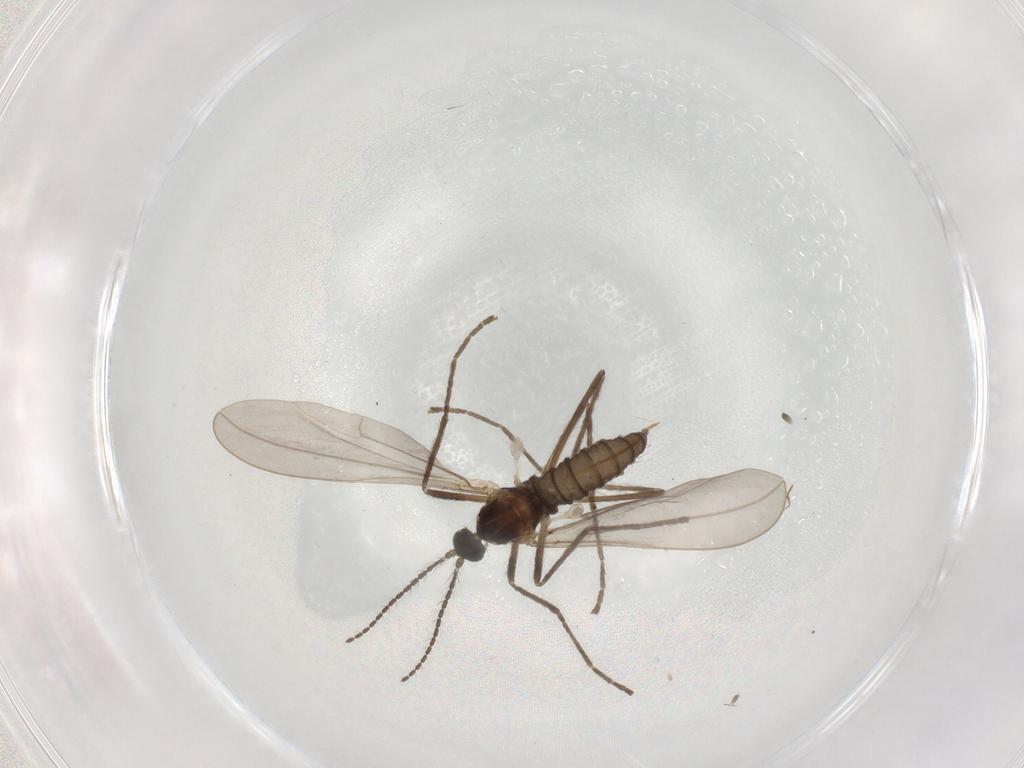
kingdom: Animalia
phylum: Arthropoda
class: Insecta
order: Diptera
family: Cecidomyiidae
